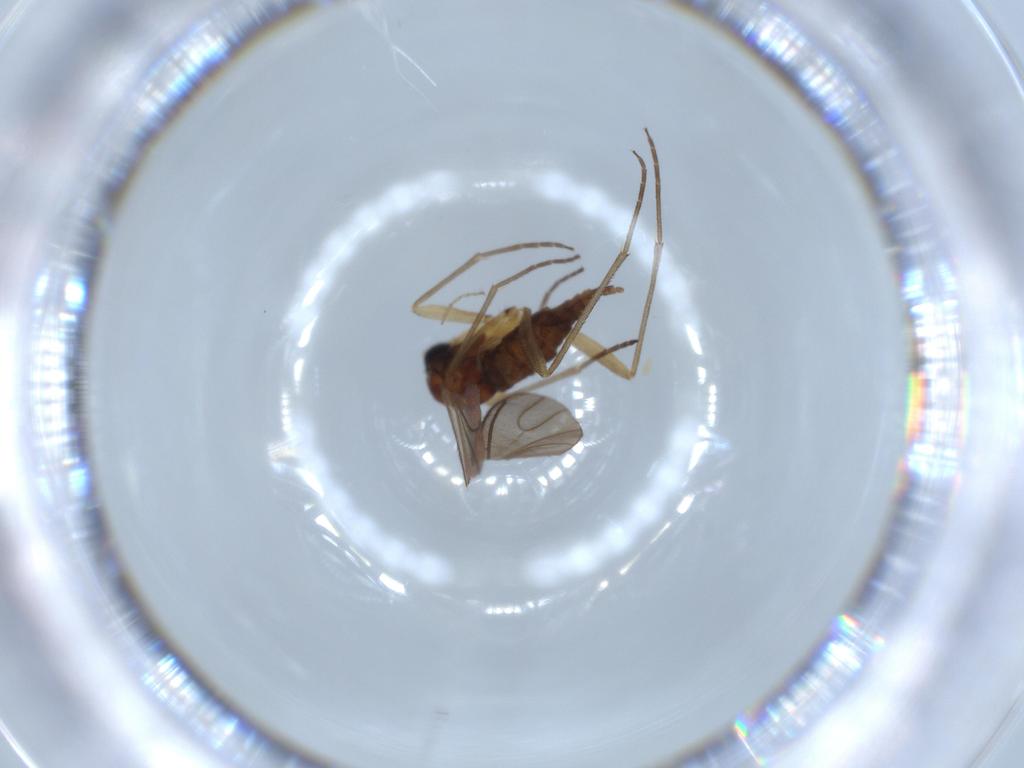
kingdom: Animalia
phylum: Arthropoda
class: Insecta
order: Diptera
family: Sciaridae
